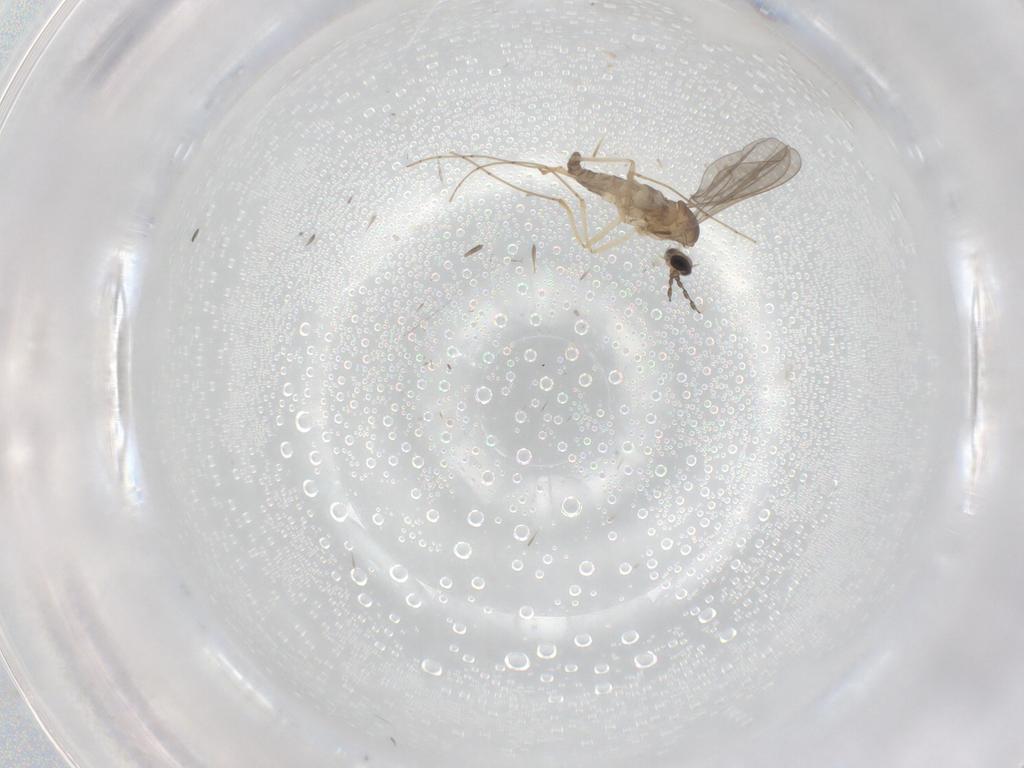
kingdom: Animalia
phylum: Arthropoda
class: Insecta
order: Diptera
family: Cecidomyiidae
